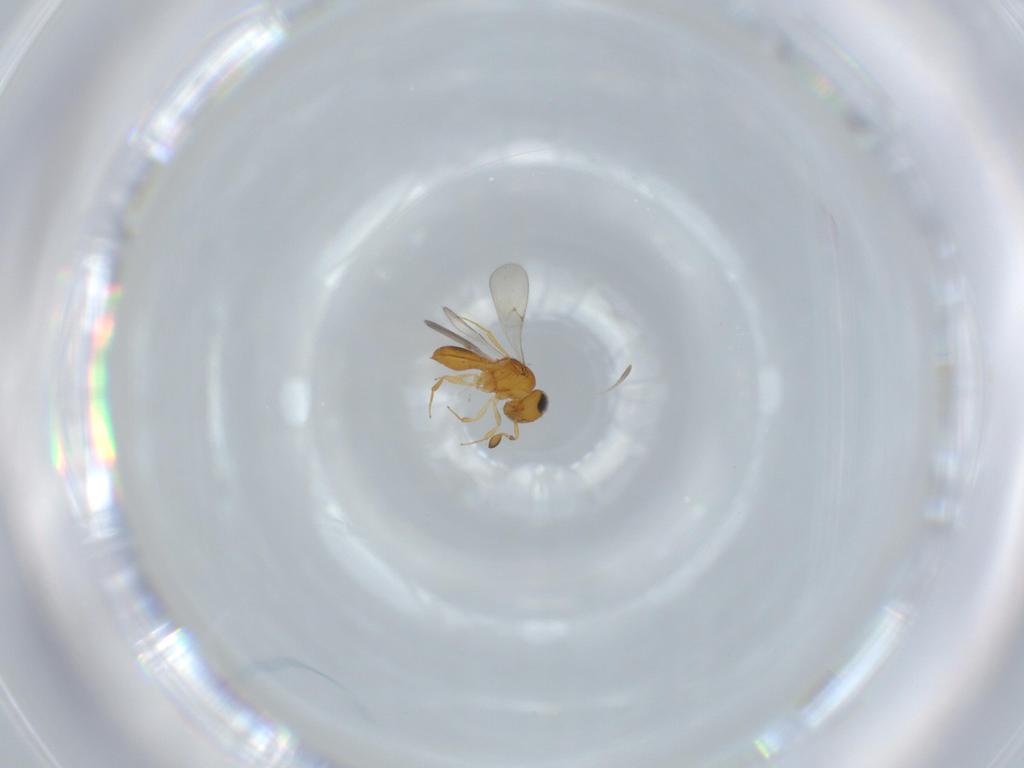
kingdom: Animalia
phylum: Arthropoda
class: Insecta
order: Hymenoptera
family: Scelionidae
